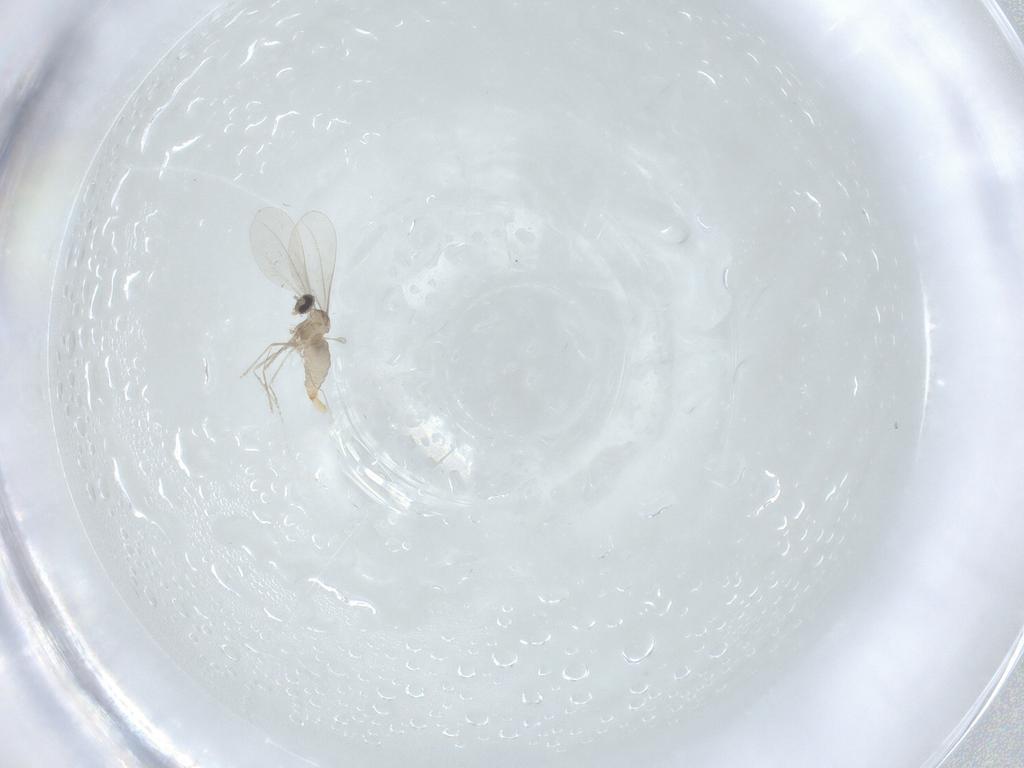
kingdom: Animalia
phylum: Arthropoda
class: Insecta
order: Diptera
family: Cecidomyiidae
